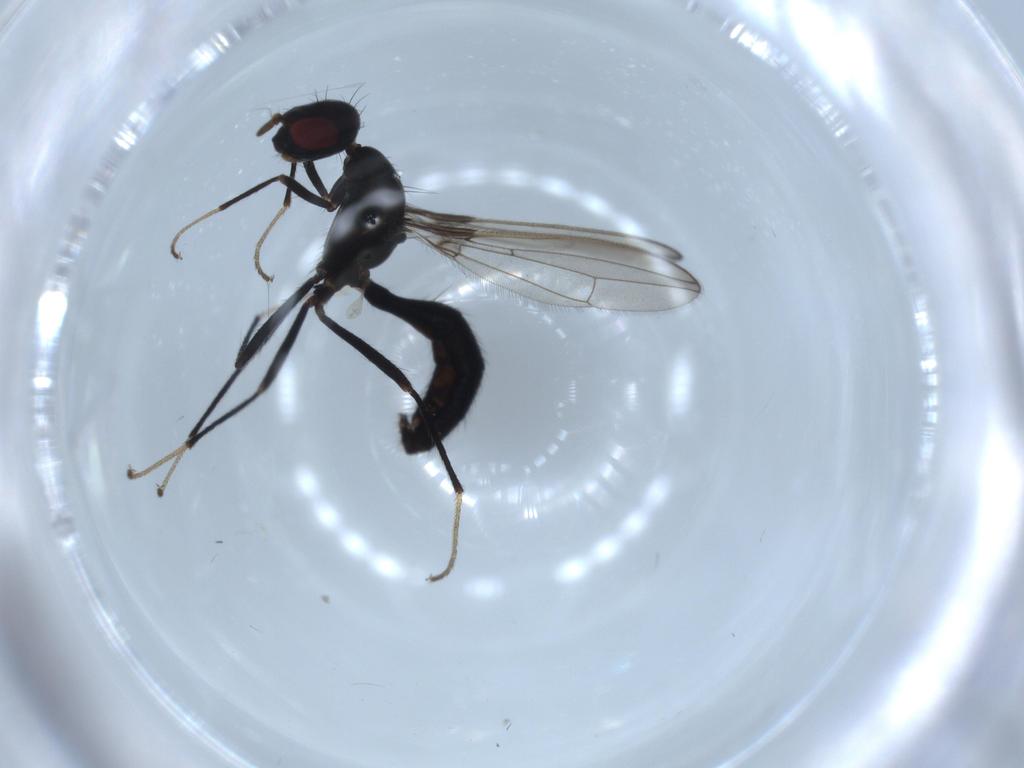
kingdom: Animalia
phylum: Arthropoda
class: Insecta
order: Diptera
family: Richardiidae
